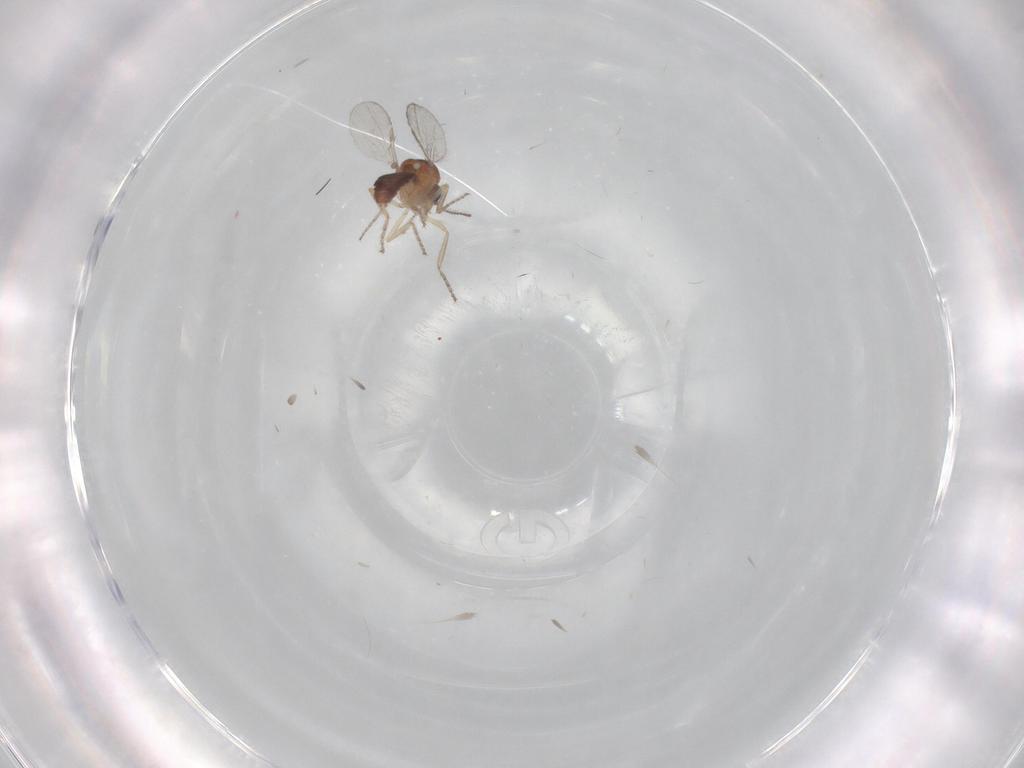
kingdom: Animalia
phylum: Arthropoda
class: Insecta
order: Diptera
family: Ceratopogonidae
